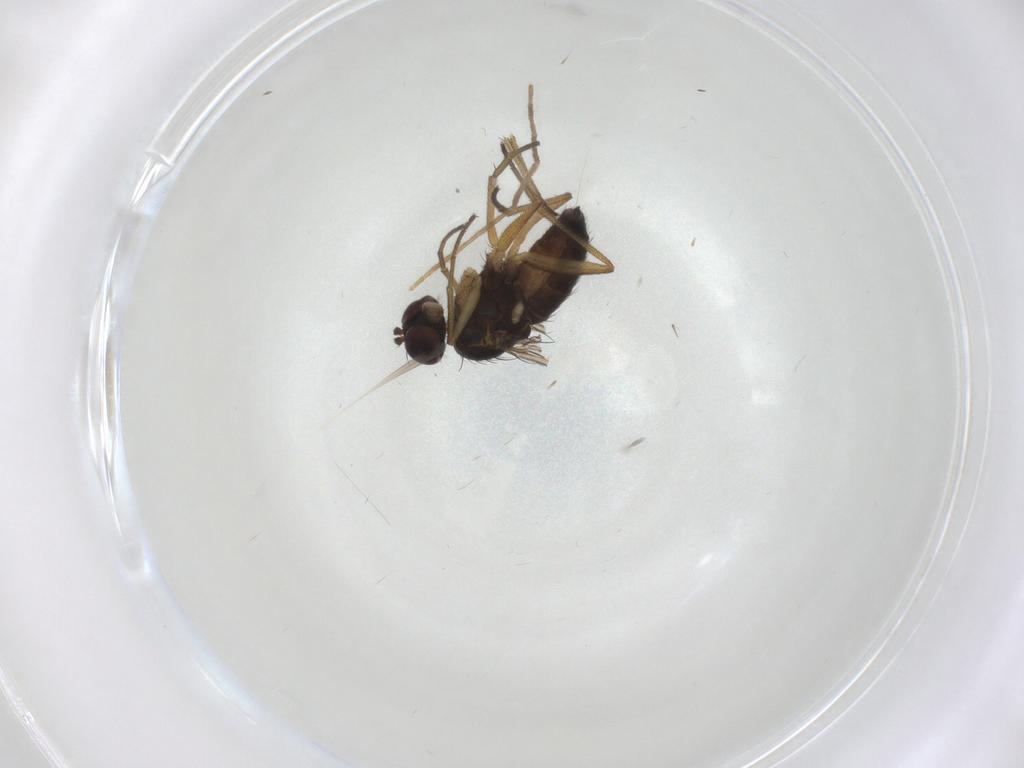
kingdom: Animalia
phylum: Arthropoda
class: Insecta
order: Diptera
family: Dolichopodidae
